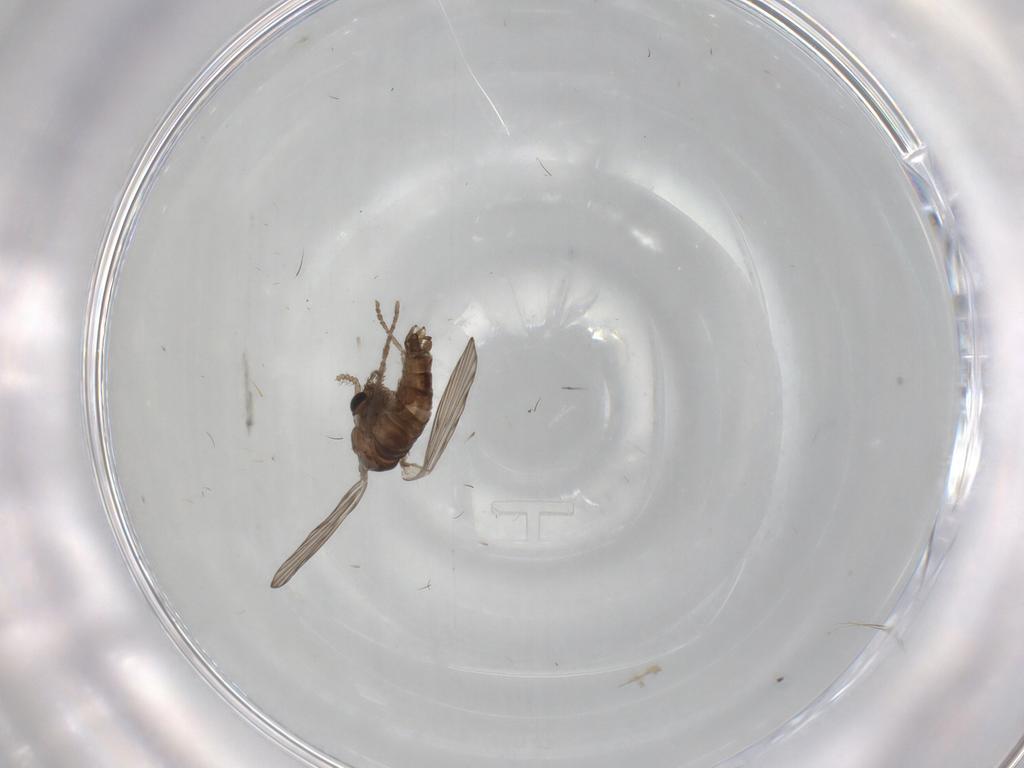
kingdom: Animalia
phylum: Arthropoda
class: Insecta
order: Diptera
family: Psychodidae
